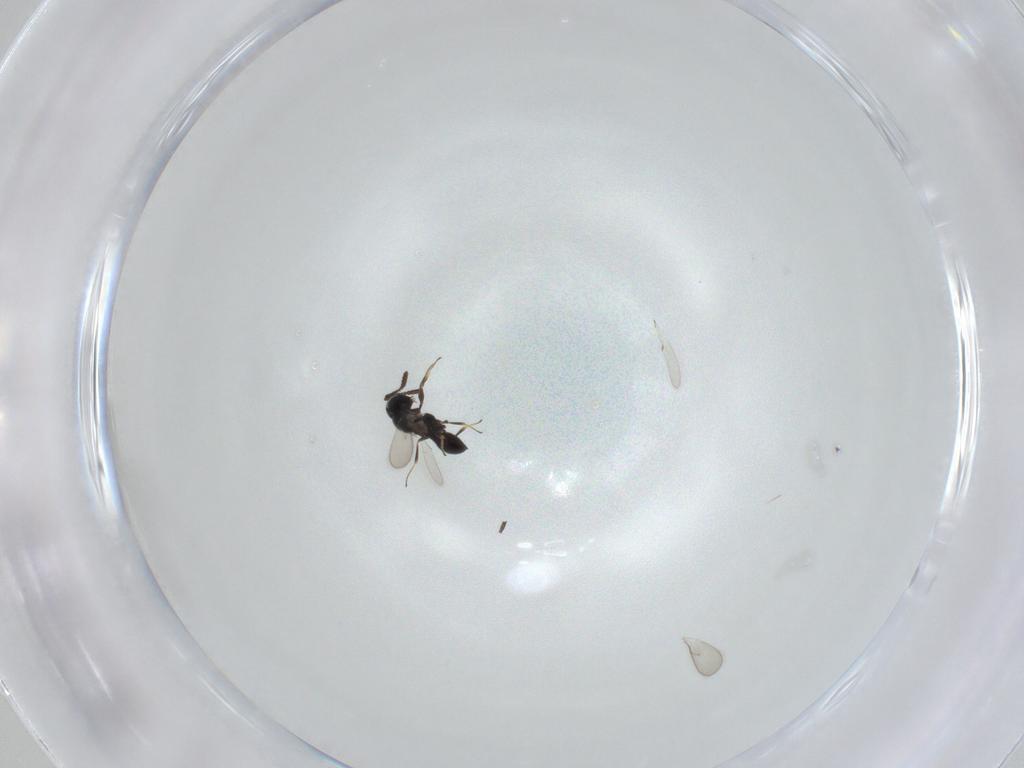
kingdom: Animalia
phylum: Arthropoda
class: Insecta
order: Hymenoptera
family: Scelionidae
